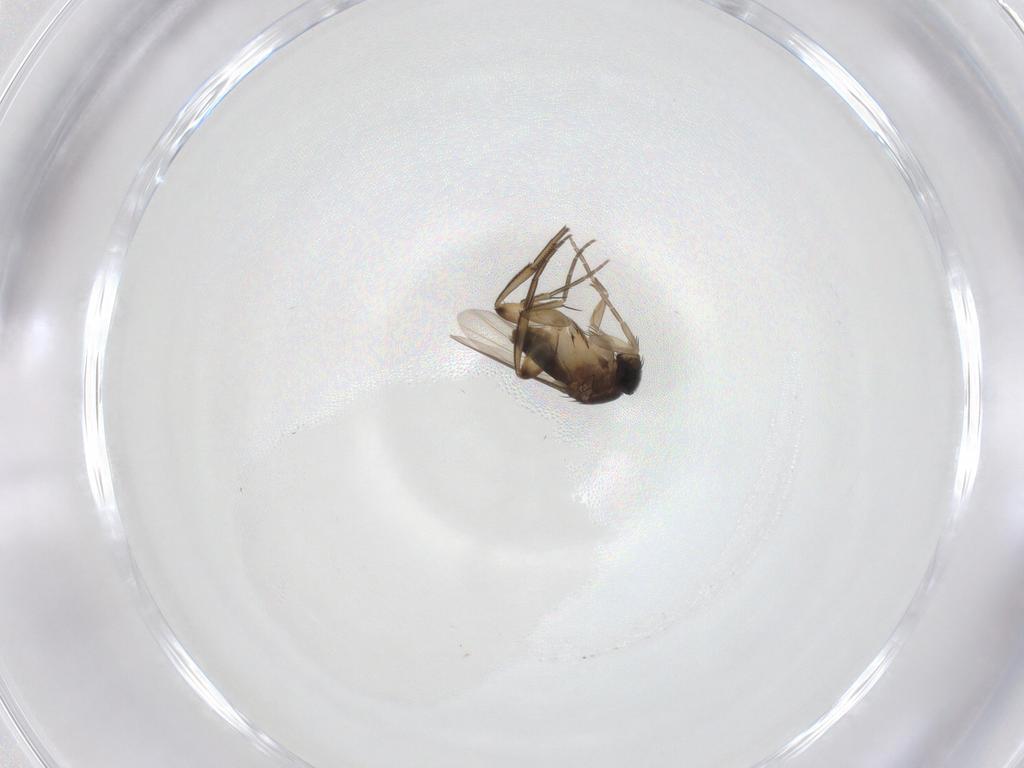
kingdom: Animalia
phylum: Arthropoda
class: Insecta
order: Diptera
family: Phoridae
